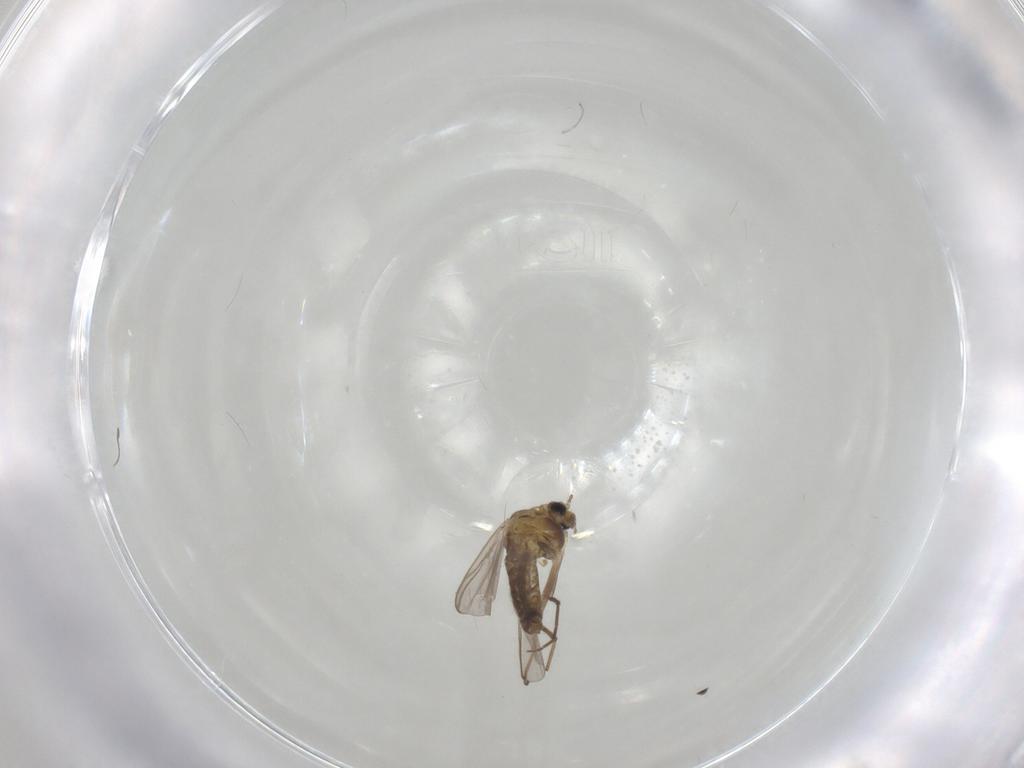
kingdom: Animalia
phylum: Arthropoda
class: Insecta
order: Diptera
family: Chironomidae
